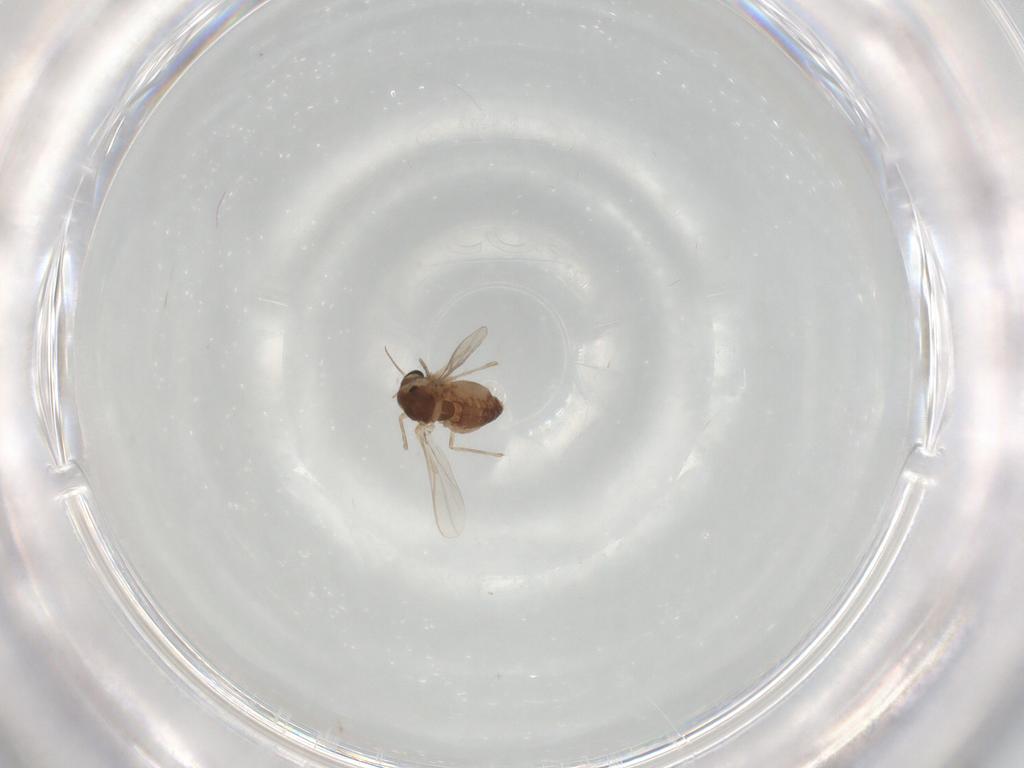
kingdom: Animalia
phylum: Arthropoda
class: Insecta
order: Diptera
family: Chironomidae
